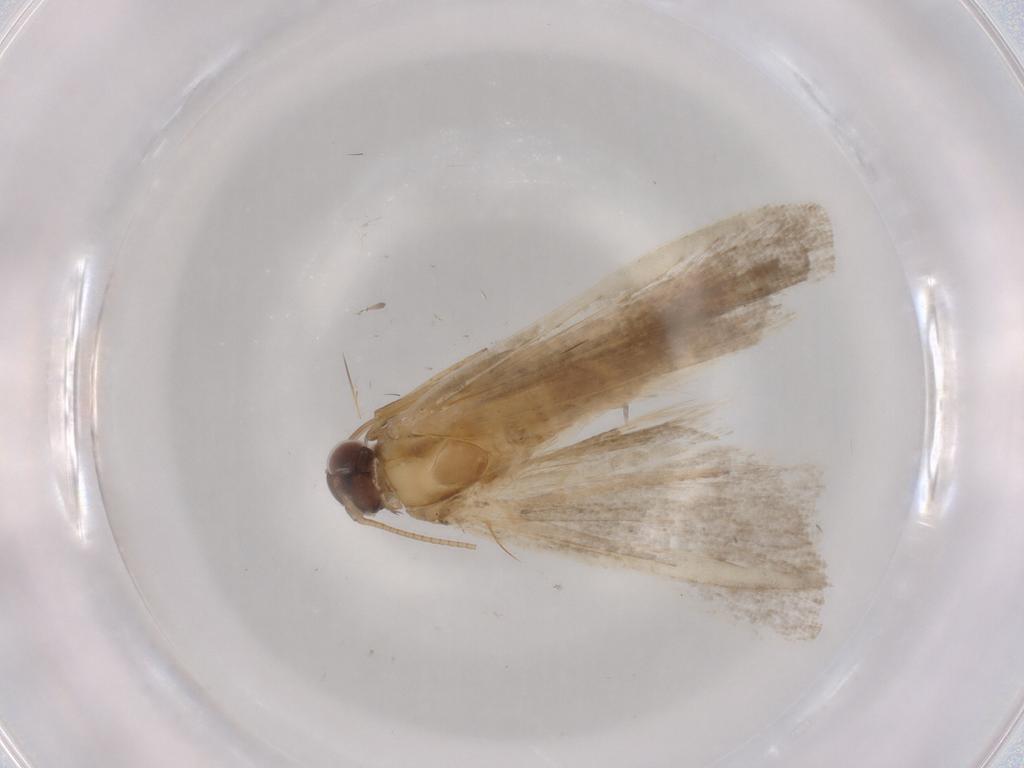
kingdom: Animalia
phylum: Arthropoda
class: Insecta
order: Lepidoptera
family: Noctuidae
